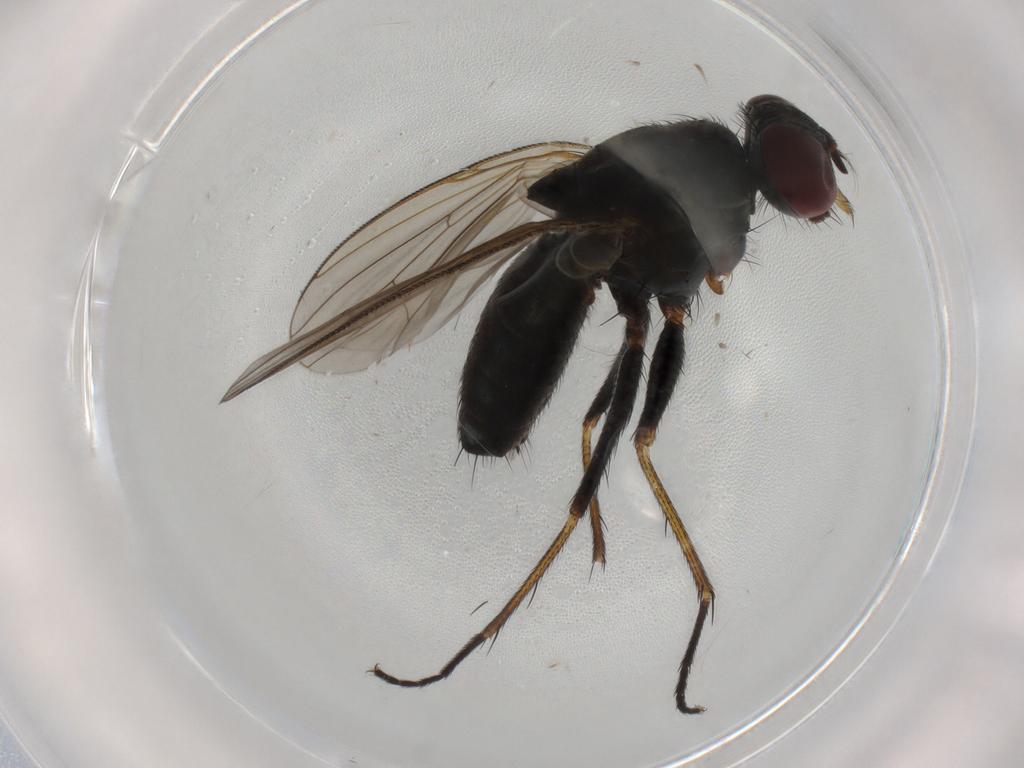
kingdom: Animalia
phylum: Arthropoda
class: Insecta
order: Diptera
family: Muscidae
